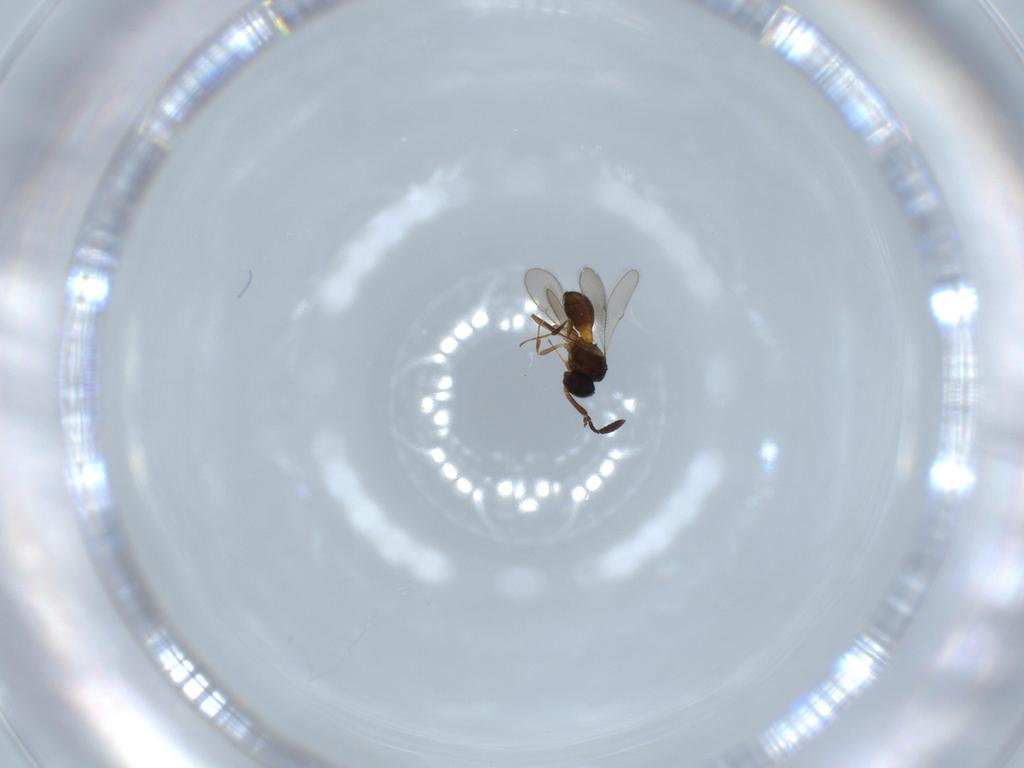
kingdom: Animalia
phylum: Arthropoda
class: Insecta
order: Hymenoptera
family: Scelionidae
